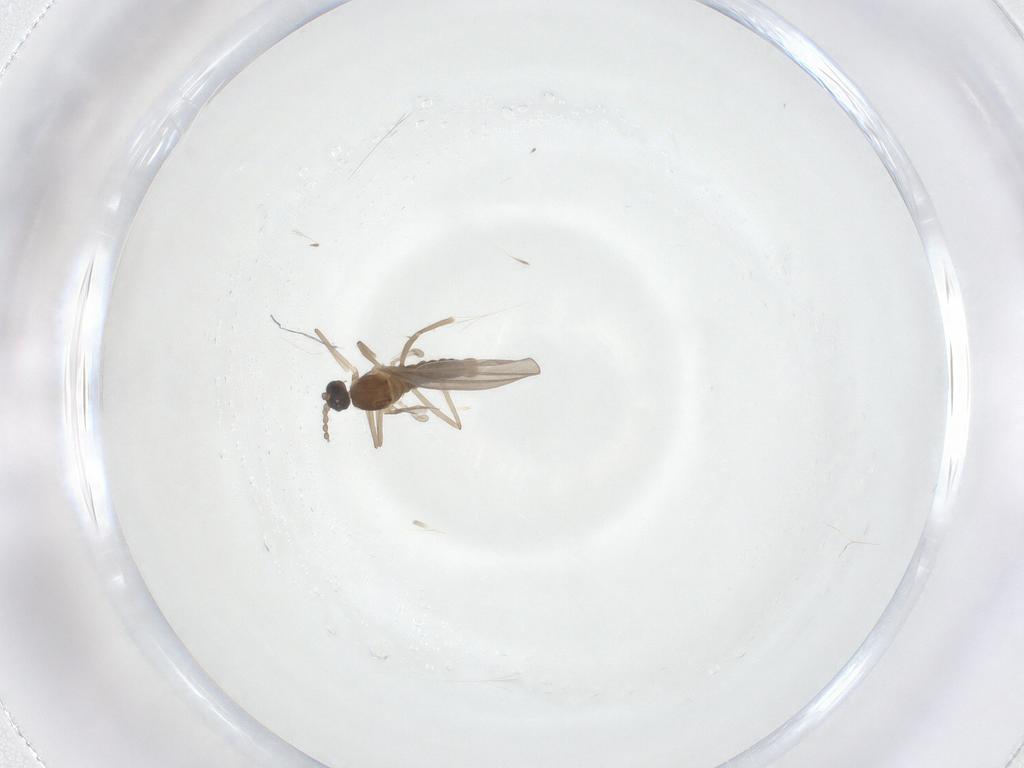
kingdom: Animalia
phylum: Arthropoda
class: Insecta
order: Diptera
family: Cecidomyiidae
